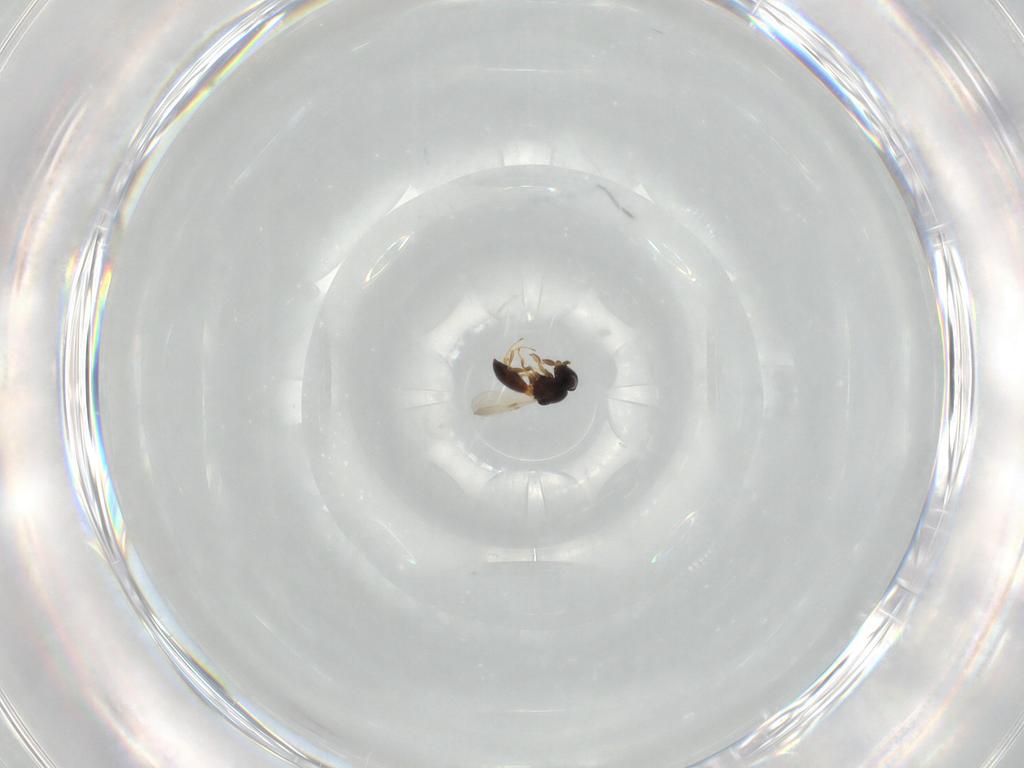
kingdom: Animalia
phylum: Arthropoda
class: Insecta
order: Hymenoptera
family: Scelionidae
